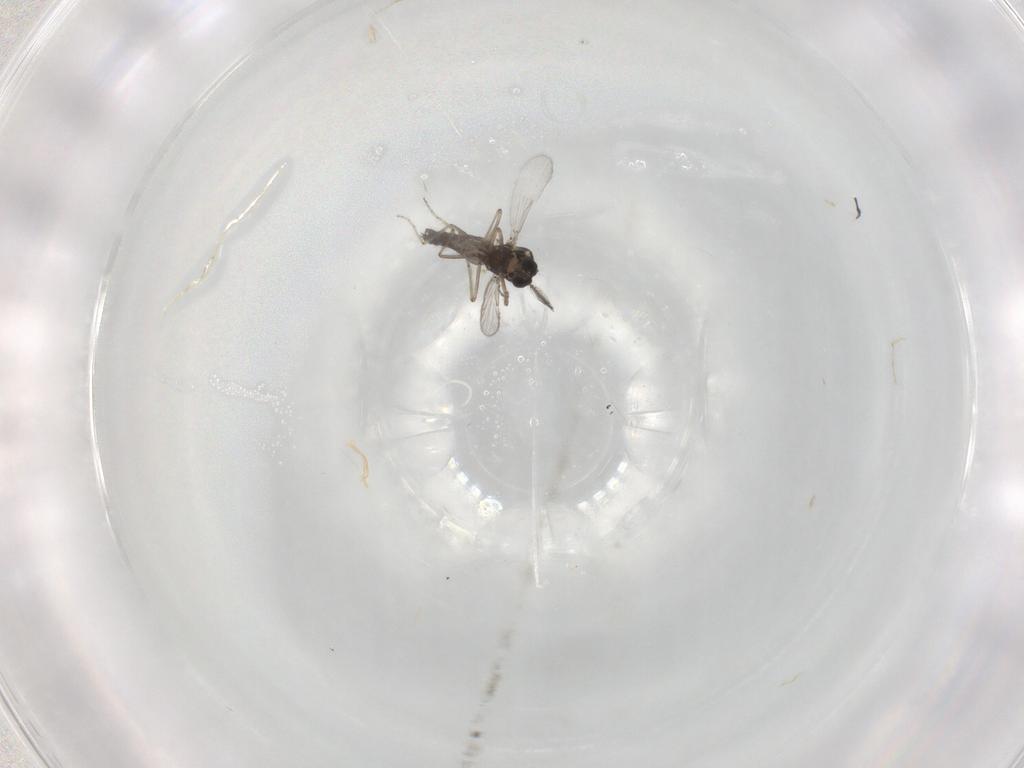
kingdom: Animalia
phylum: Arthropoda
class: Insecta
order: Diptera
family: Ceratopogonidae
